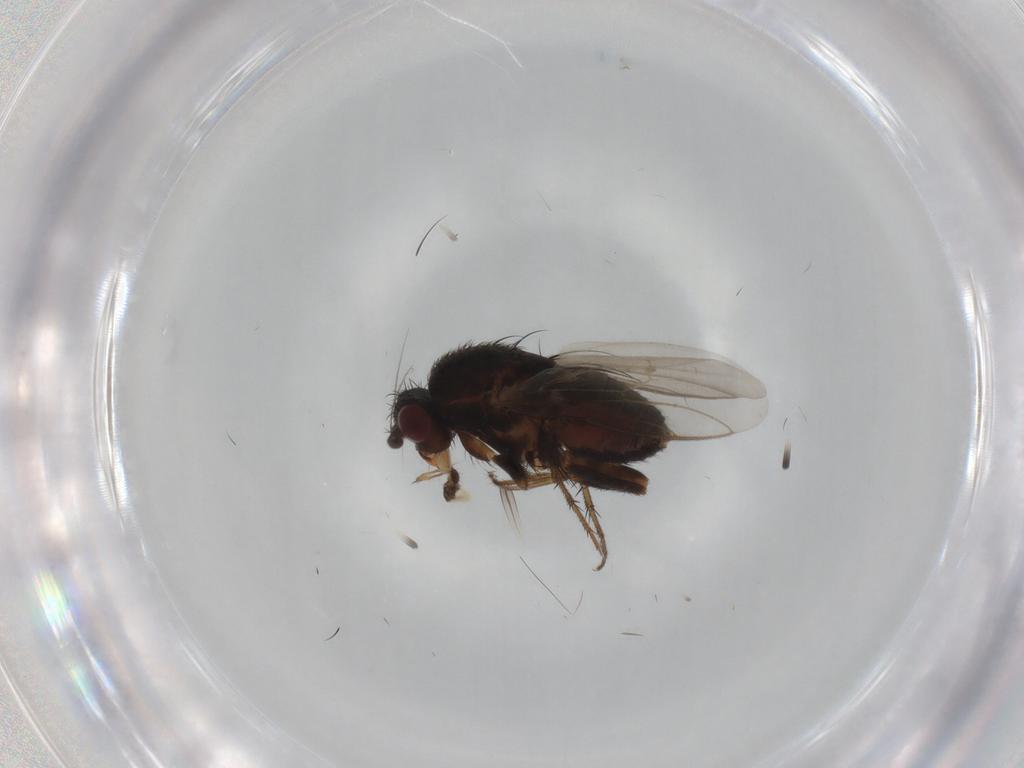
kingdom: Animalia
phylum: Arthropoda
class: Insecta
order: Diptera
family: Sphaeroceridae
